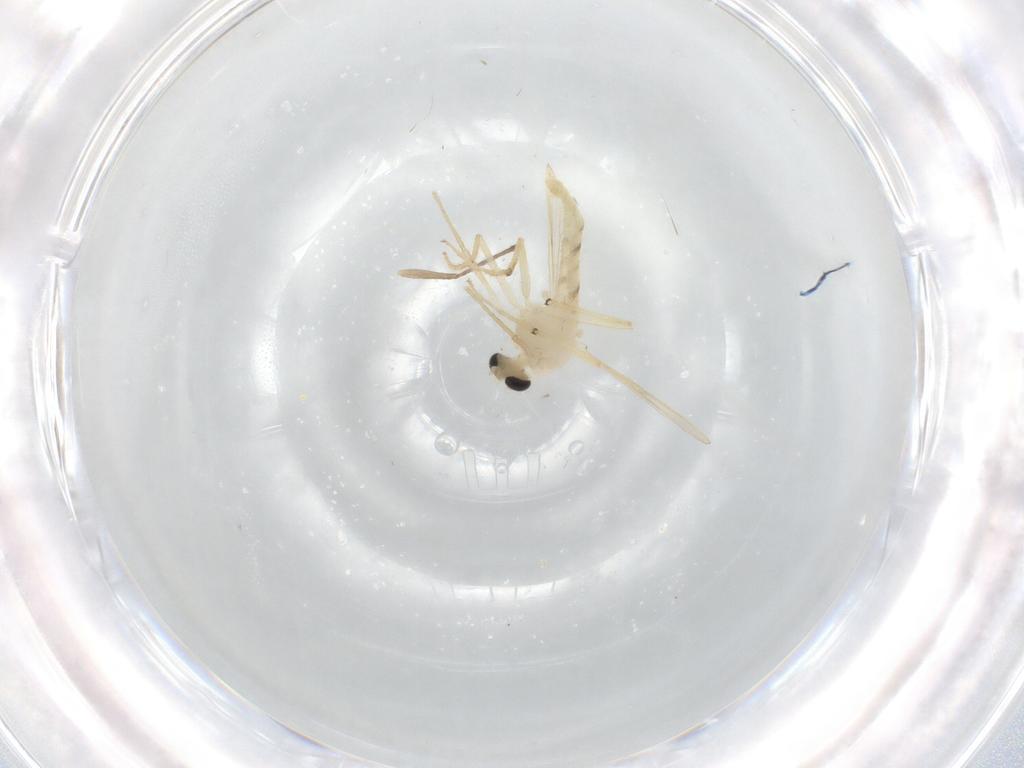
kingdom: Animalia
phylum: Arthropoda
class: Insecta
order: Diptera
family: Chironomidae
